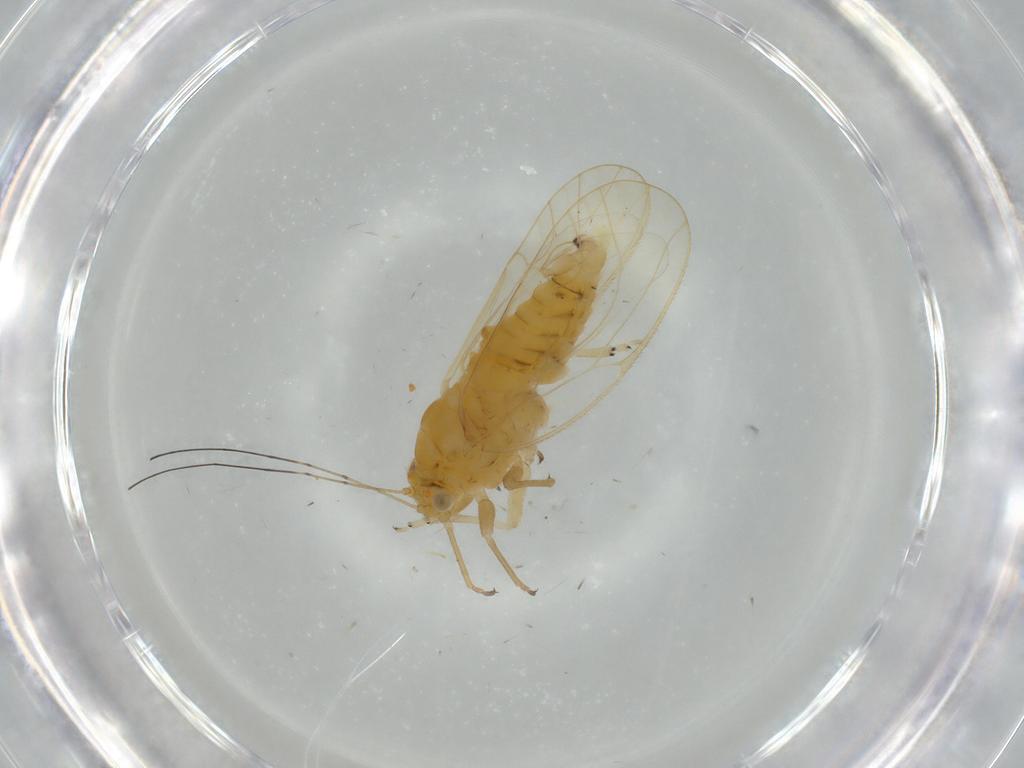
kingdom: Animalia
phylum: Arthropoda
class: Insecta
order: Hemiptera
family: Psyllidae
